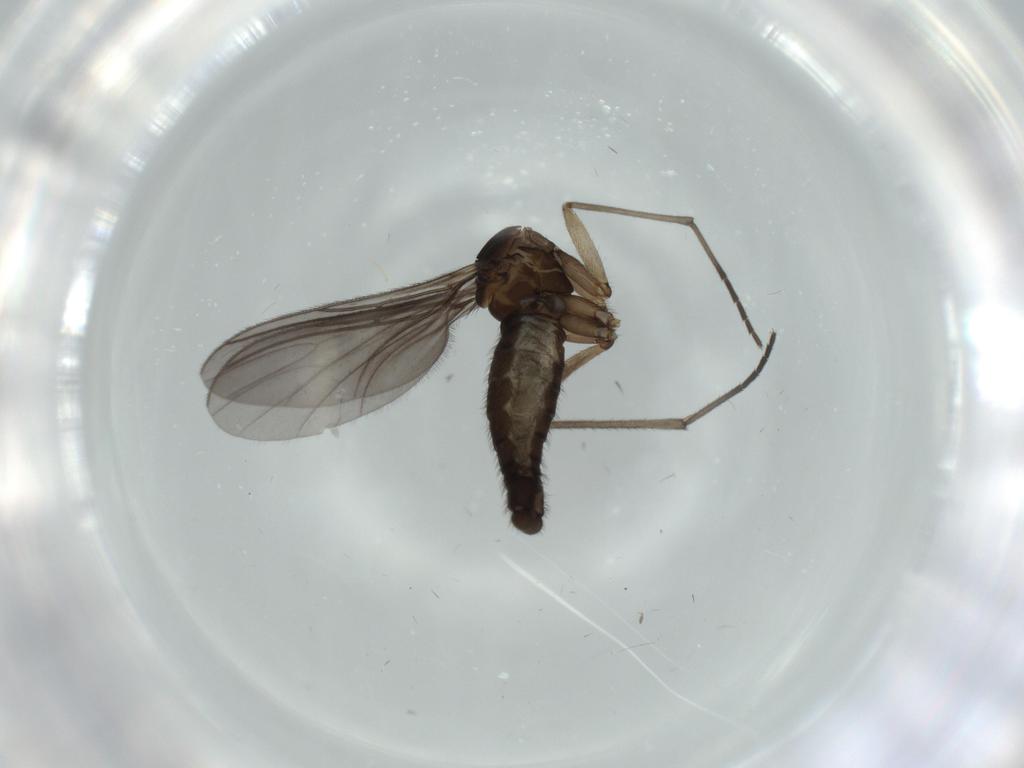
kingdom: Animalia
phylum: Arthropoda
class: Insecta
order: Diptera
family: Sciaridae
